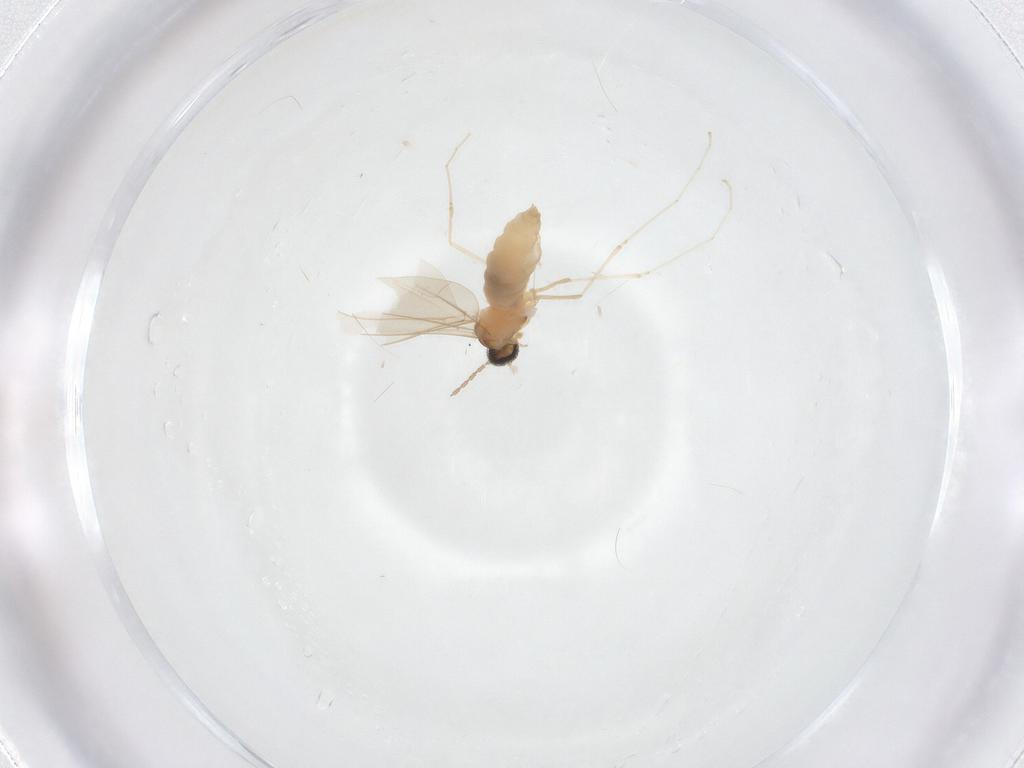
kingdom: Animalia
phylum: Arthropoda
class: Insecta
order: Diptera
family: Cecidomyiidae
